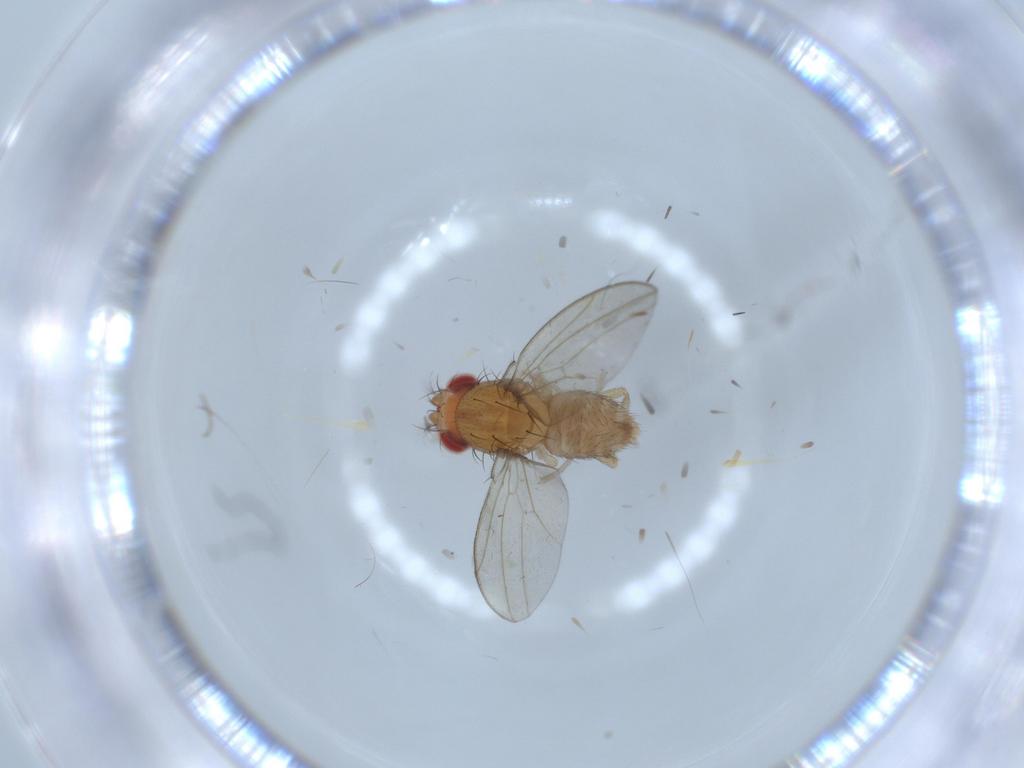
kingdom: Animalia
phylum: Arthropoda
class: Insecta
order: Diptera
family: Drosophilidae
